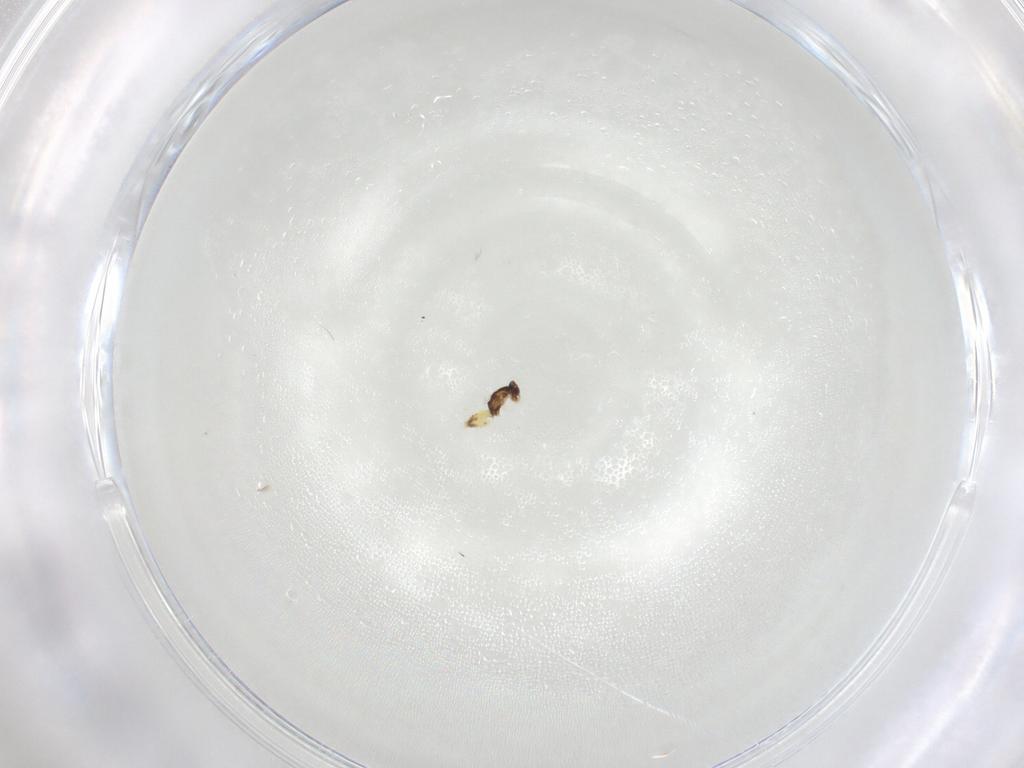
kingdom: Animalia
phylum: Arthropoda
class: Insecta
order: Hymenoptera
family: Mymaridae
